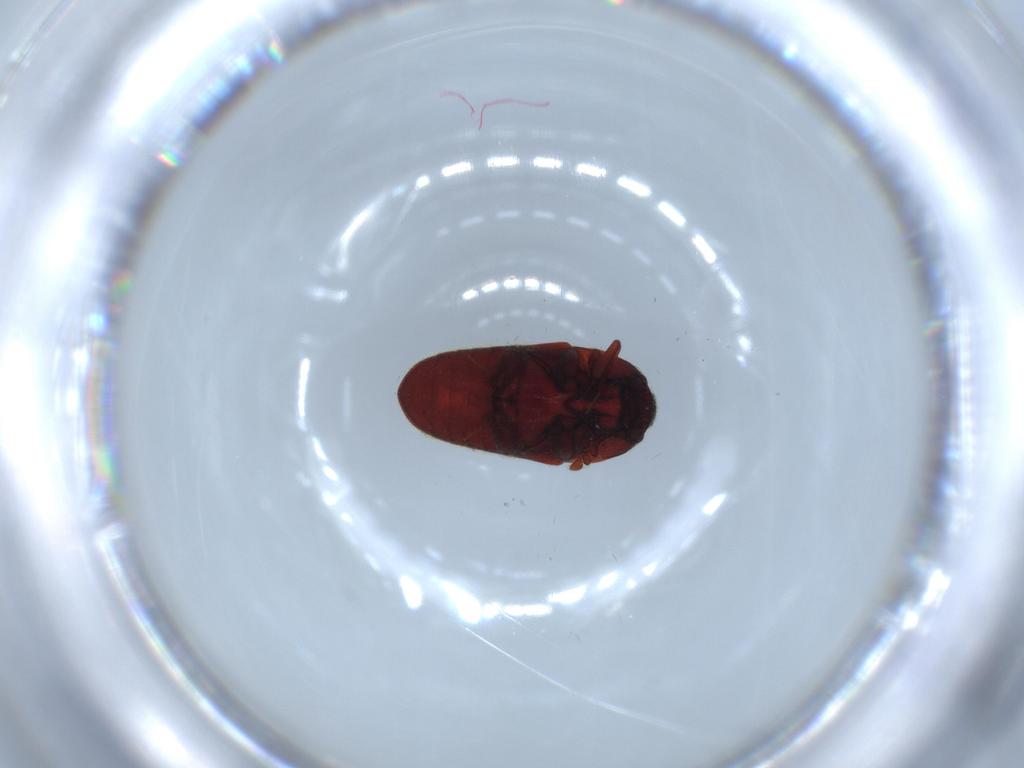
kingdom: Animalia
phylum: Arthropoda
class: Insecta
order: Coleoptera
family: Throscidae
